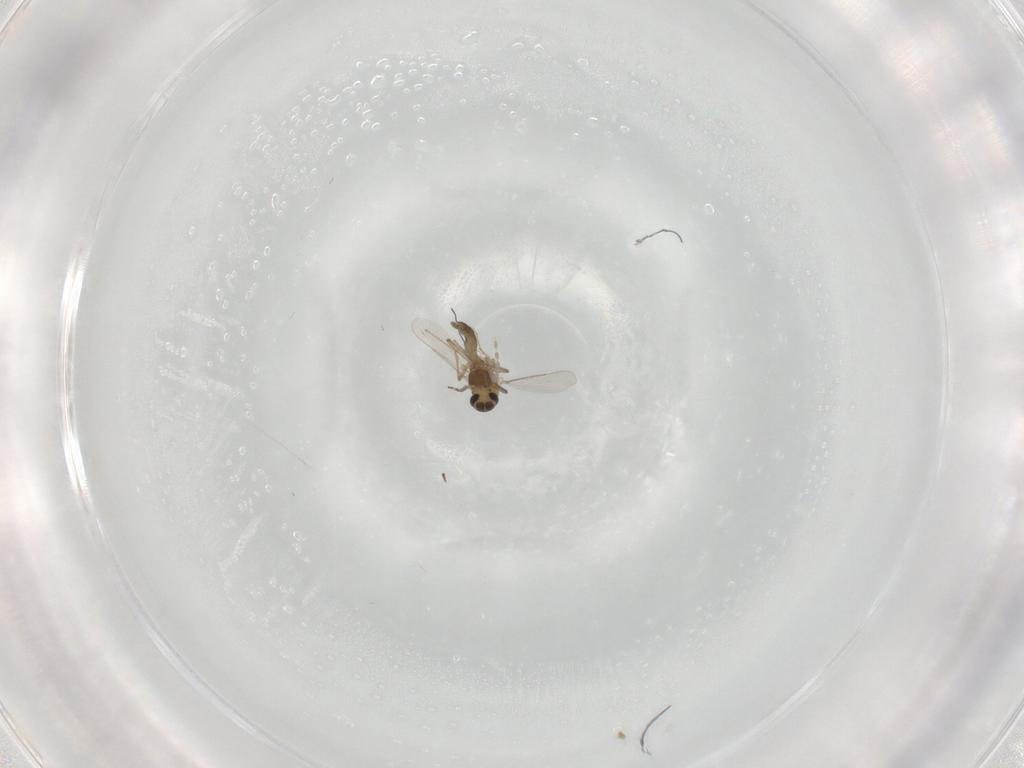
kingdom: Animalia
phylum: Arthropoda
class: Insecta
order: Diptera
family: Chironomidae
